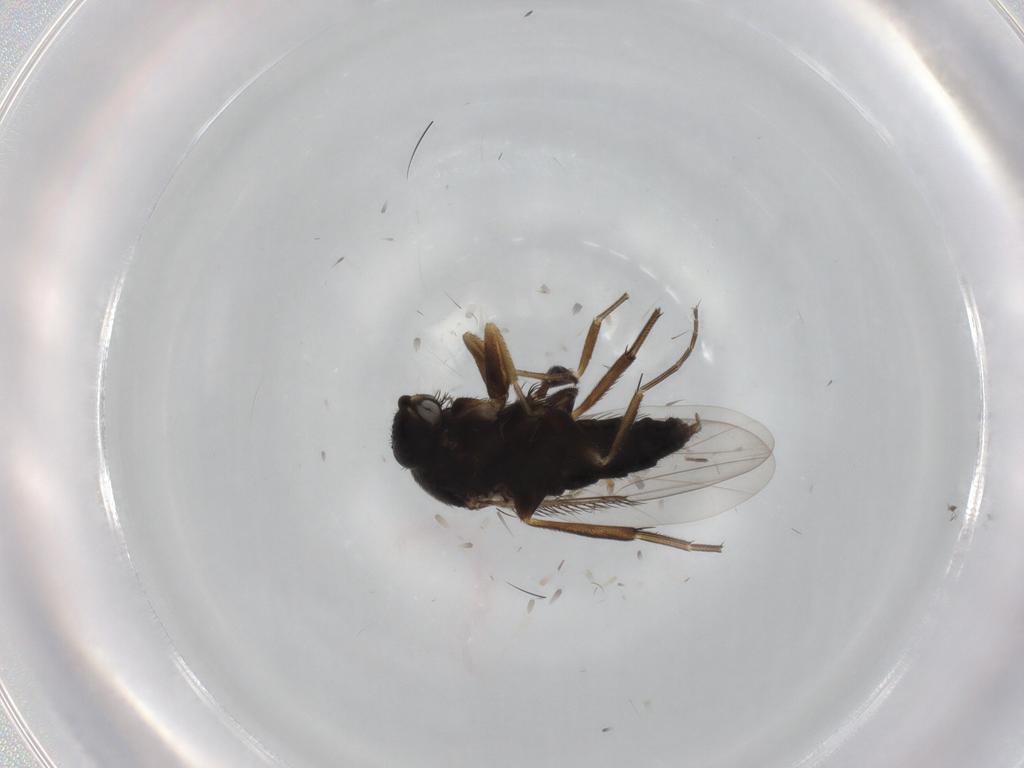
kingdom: Animalia
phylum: Arthropoda
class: Insecta
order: Diptera
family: Phoridae
